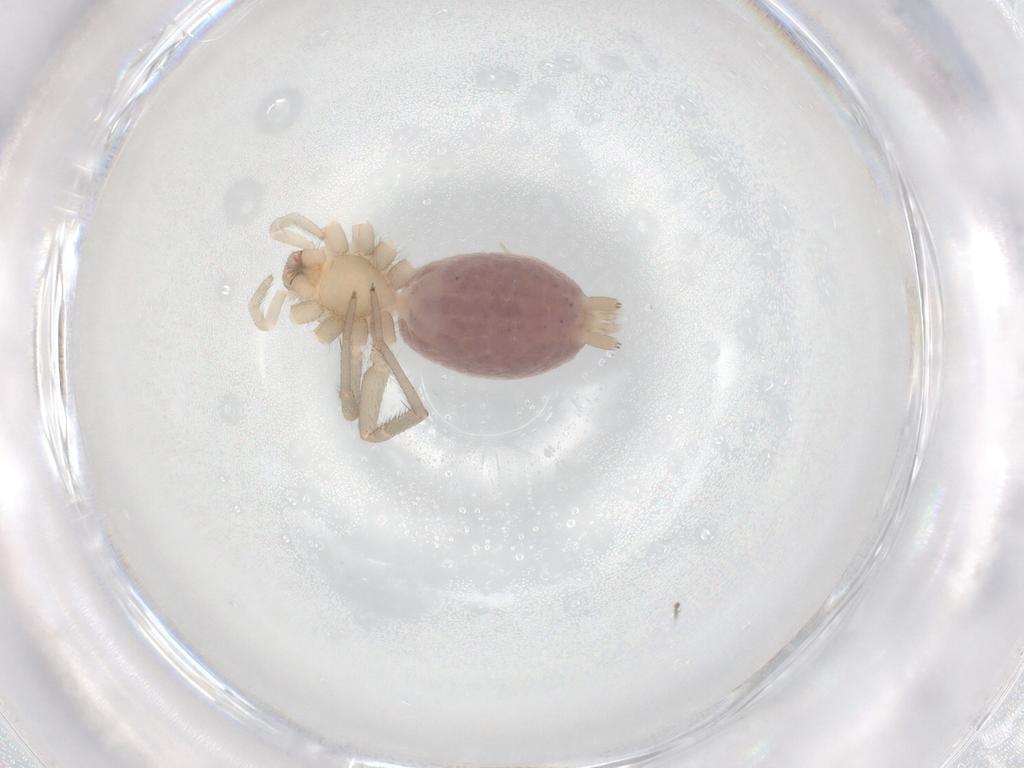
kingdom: Animalia
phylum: Arthropoda
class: Arachnida
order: Araneae
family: Gnaphosidae
